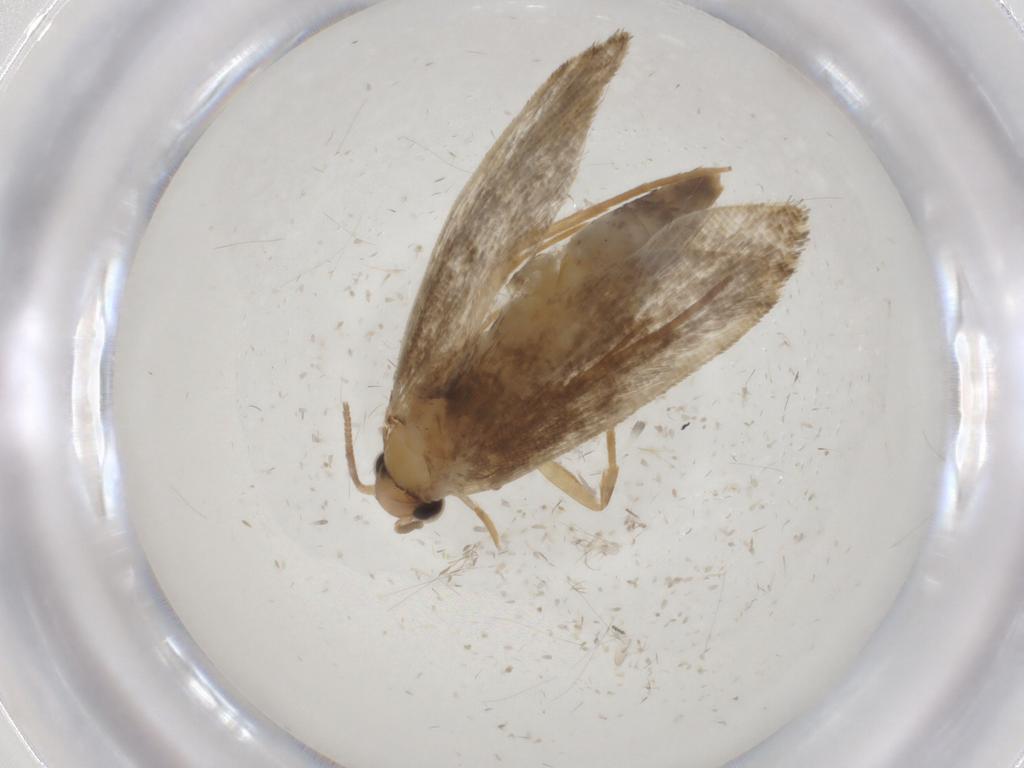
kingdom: Animalia
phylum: Arthropoda
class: Insecta
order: Lepidoptera
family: Tineidae
